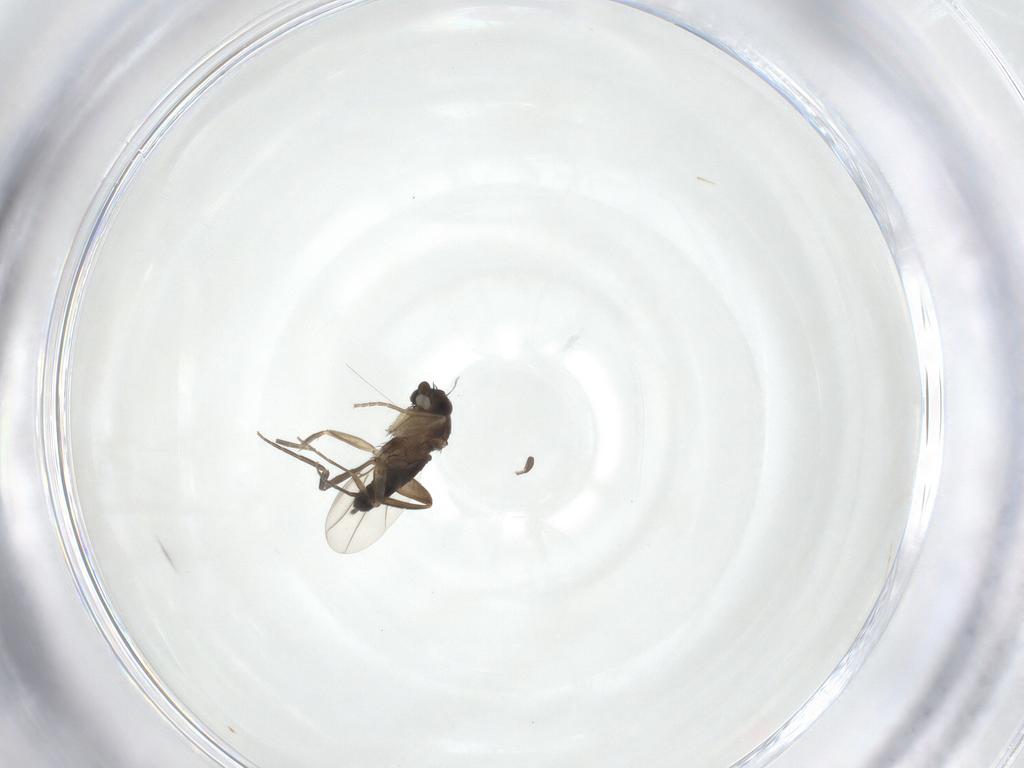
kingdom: Animalia
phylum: Arthropoda
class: Insecta
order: Diptera
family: Phoridae
